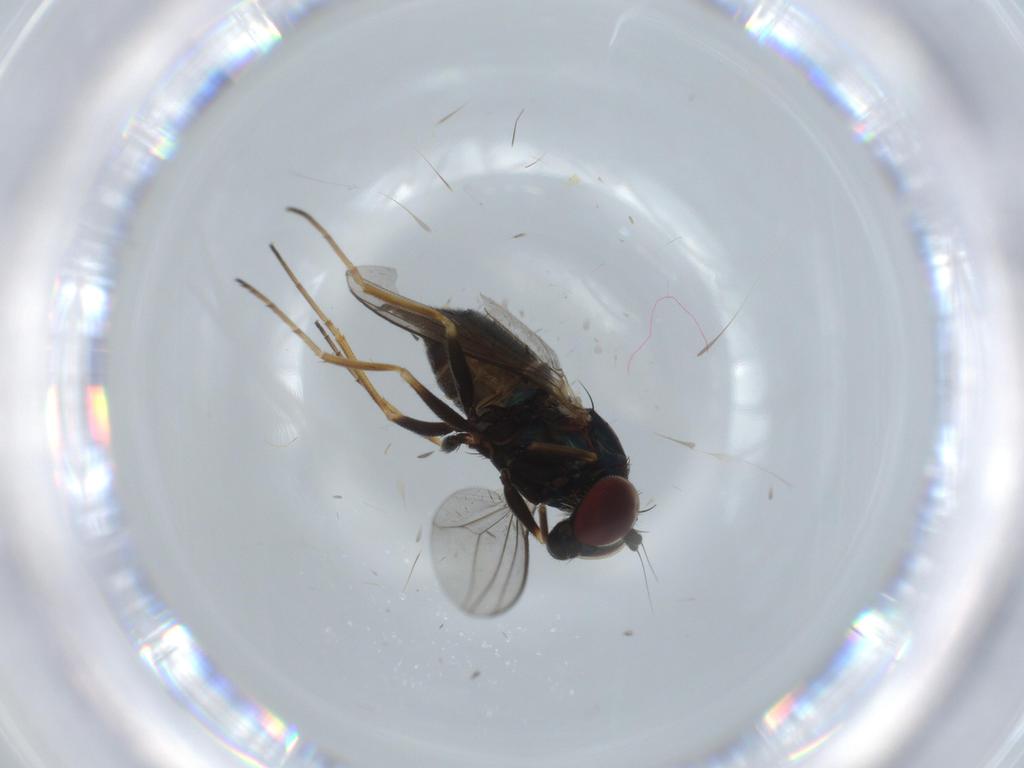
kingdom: Animalia
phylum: Arthropoda
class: Insecta
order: Diptera
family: Dolichopodidae
